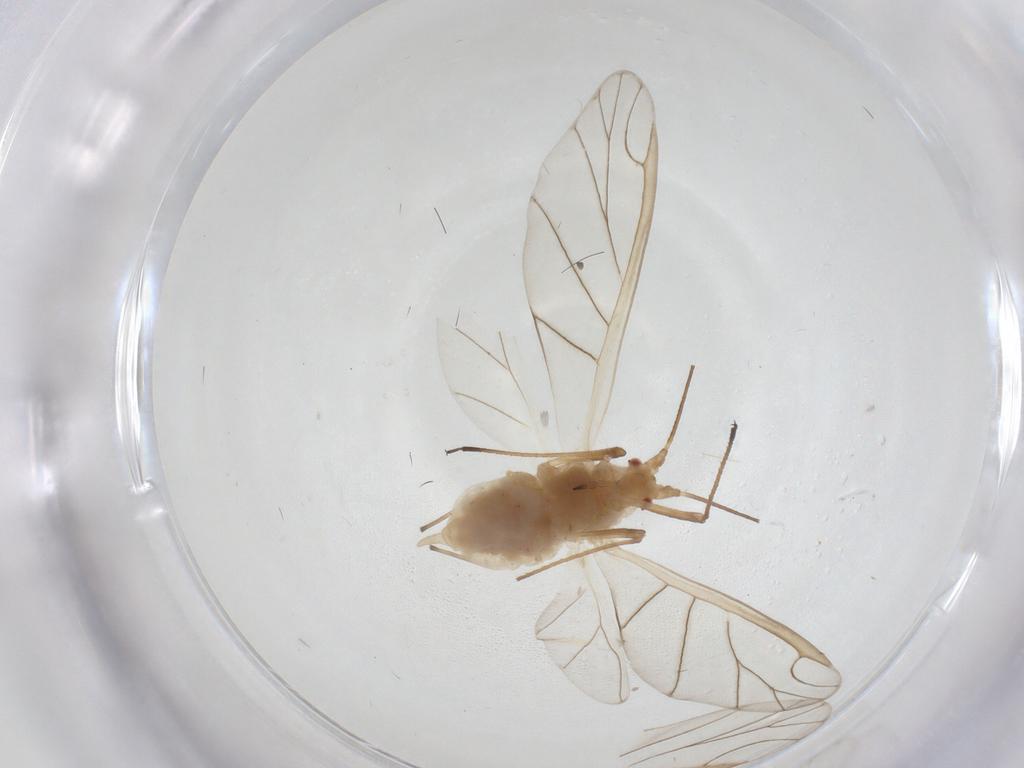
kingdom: Animalia
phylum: Arthropoda
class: Insecta
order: Hemiptera
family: Aphididae
